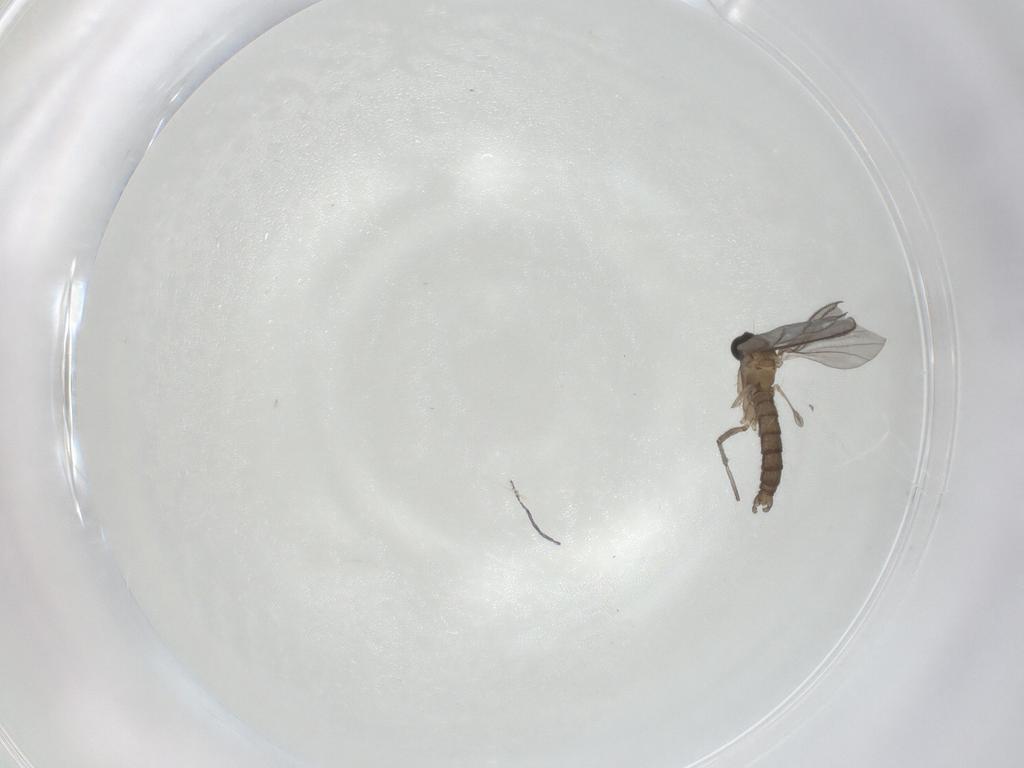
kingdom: Animalia
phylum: Arthropoda
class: Insecta
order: Diptera
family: Sciaridae
